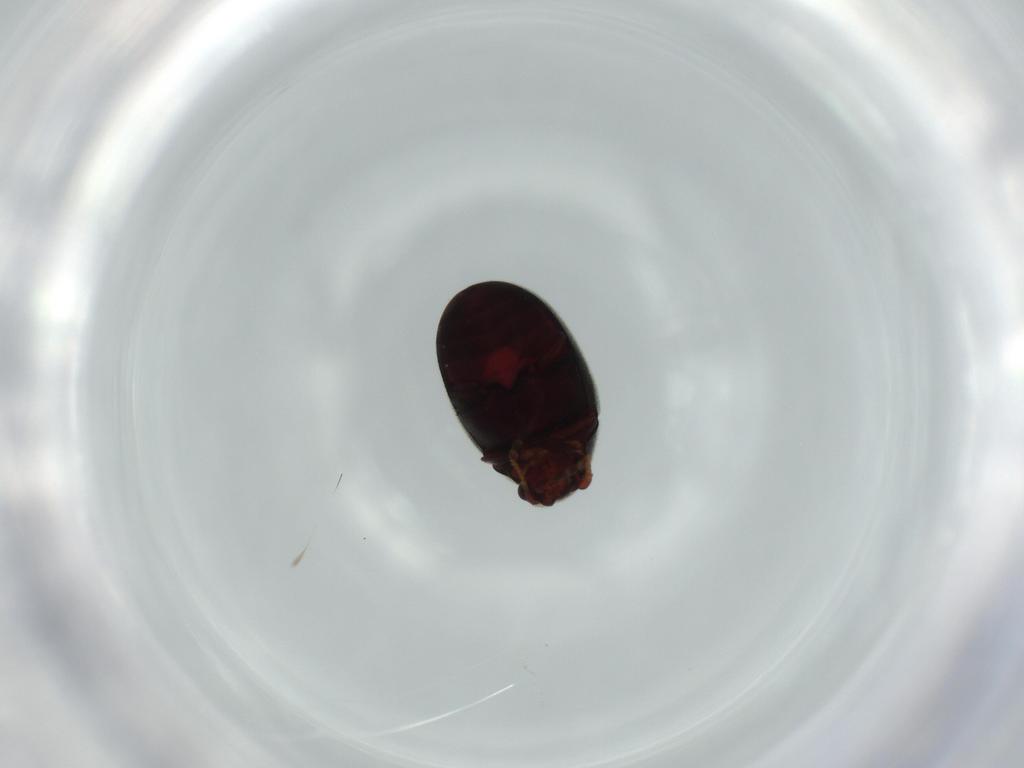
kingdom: Animalia
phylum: Arthropoda
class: Insecta
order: Coleoptera
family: Ptinidae
